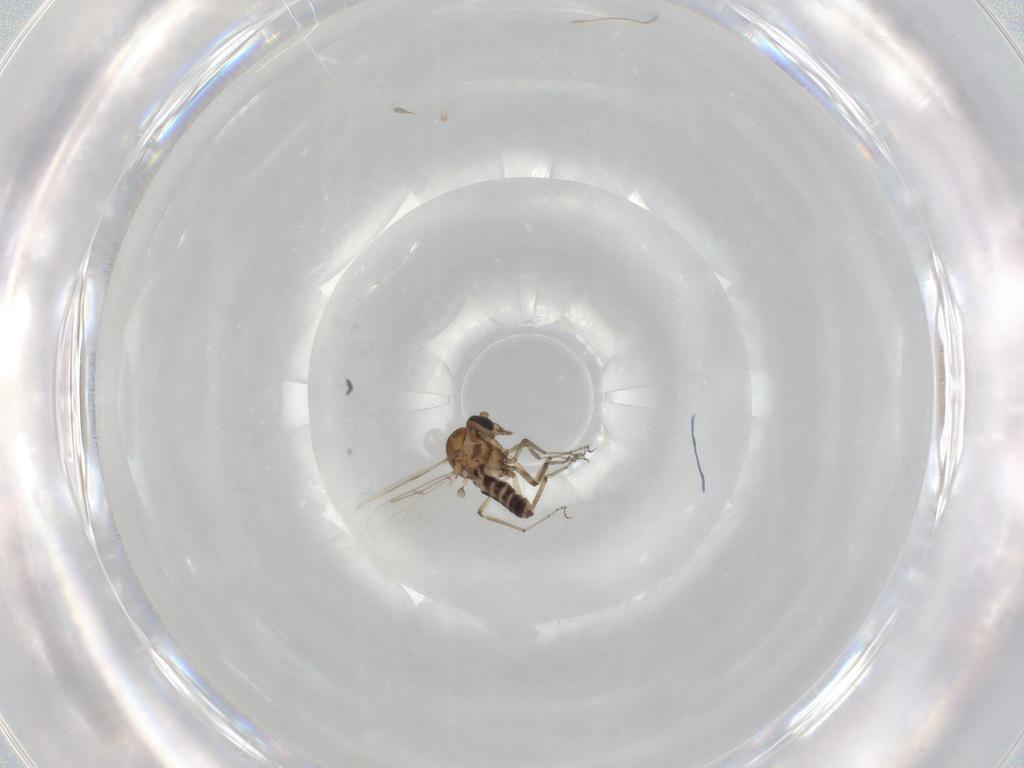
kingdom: Animalia
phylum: Arthropoda
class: Insecta
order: Diptera
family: Ceratopogonidae
